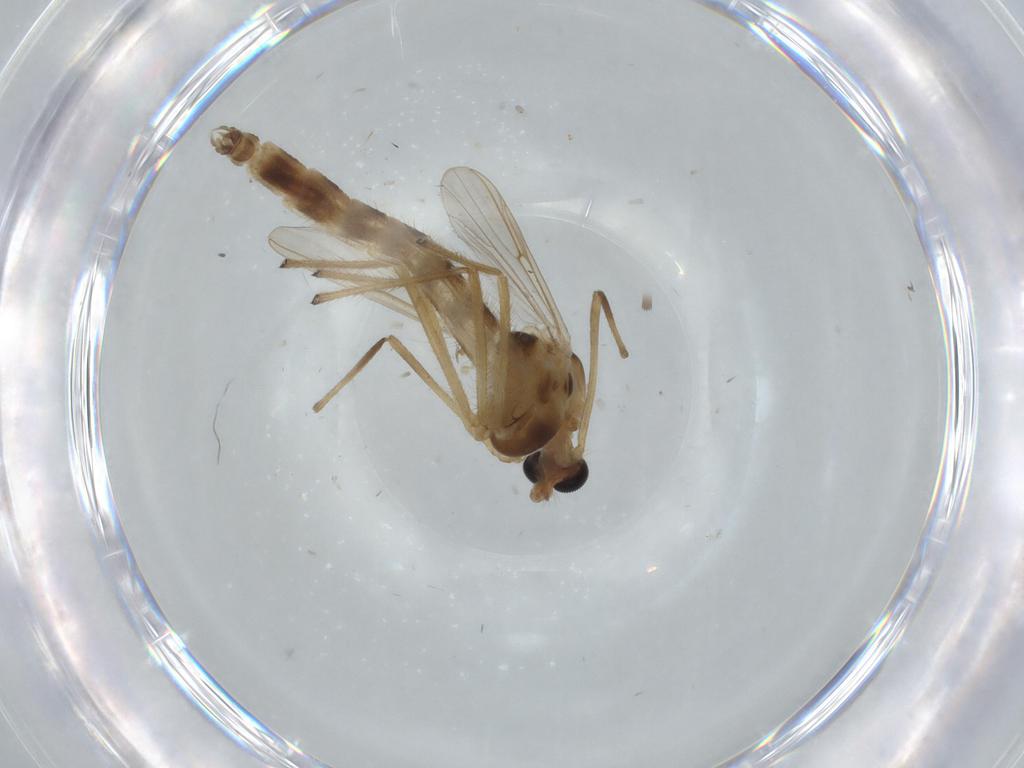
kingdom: Animalia
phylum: Arthropoda
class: Insecta
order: Diptera
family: Chironomidae
